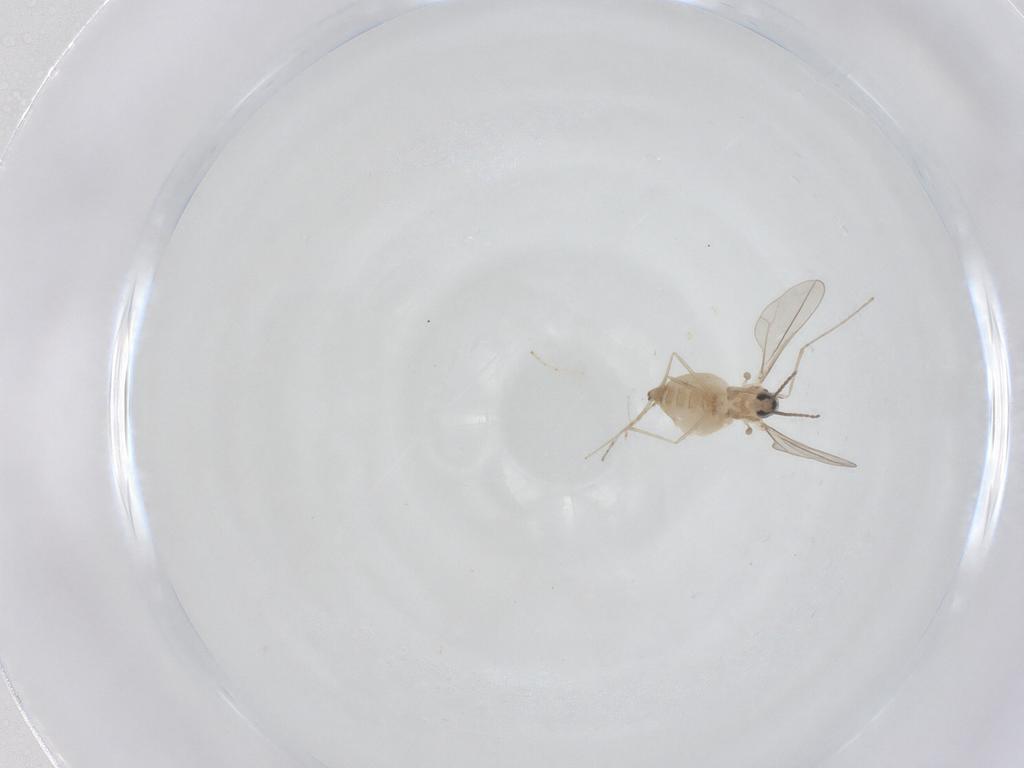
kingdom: Animalia
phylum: Arthropoda
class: Insecta
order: Diptera
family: Cecidomyiidae
